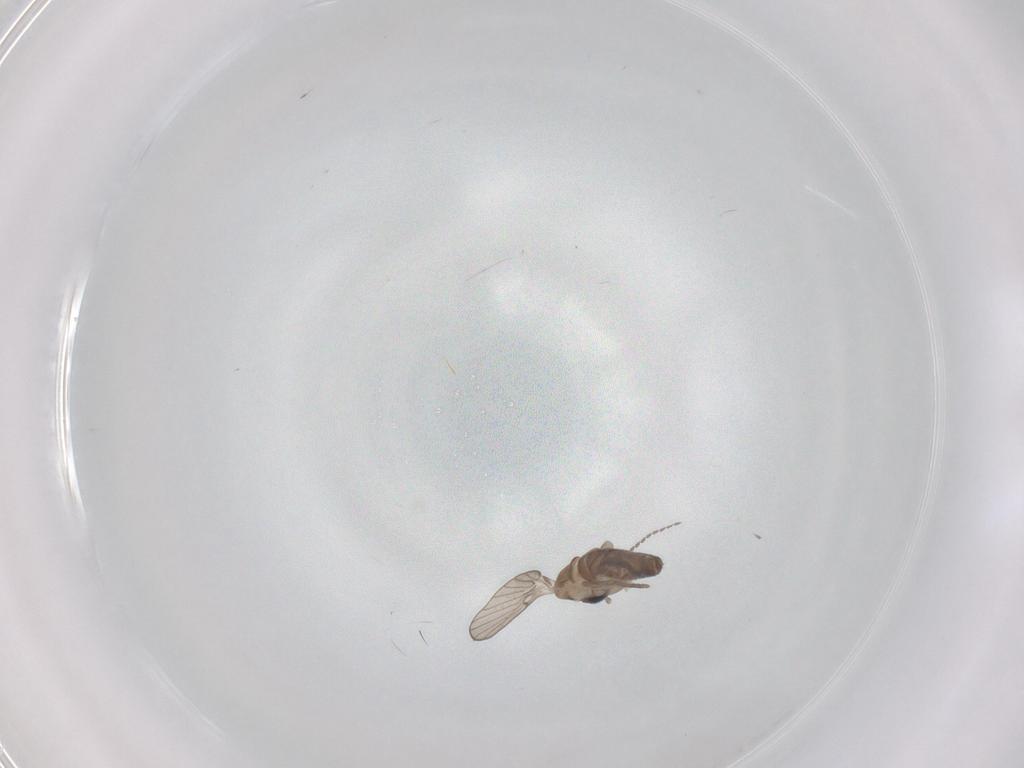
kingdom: Animalia
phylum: Arthropoda
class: Insecta
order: Diptera
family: Psychodidae
